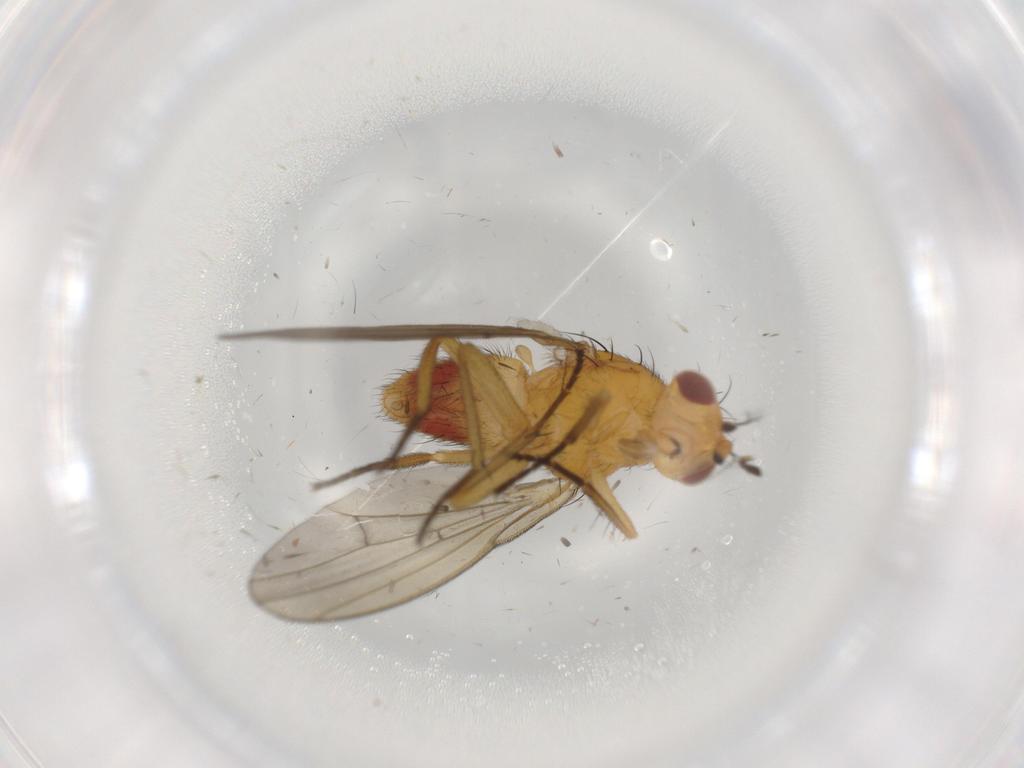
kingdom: Animalia
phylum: Arthropoda
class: Insecta
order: Diptera
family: Lauxaniidae
